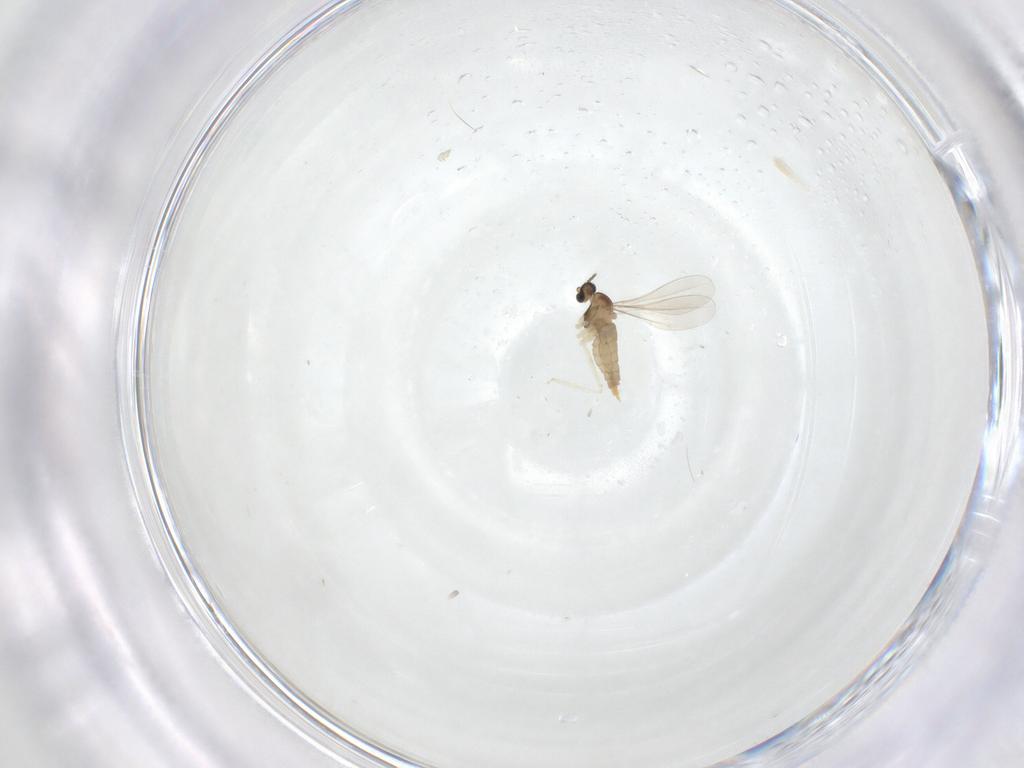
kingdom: Animalia
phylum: Arthropoda
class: Insecta
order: Diptera
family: Cecidomyiidae
